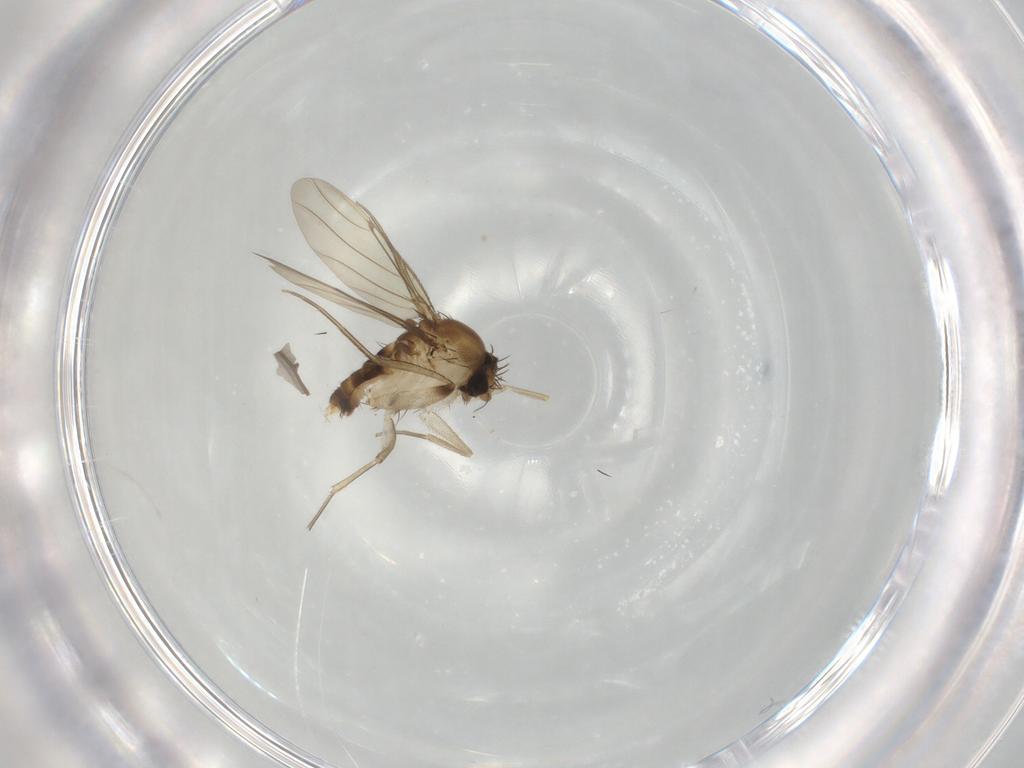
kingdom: Animalia
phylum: Arthropoda
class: Insecta
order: Diptera
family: Cecidomyiidae
